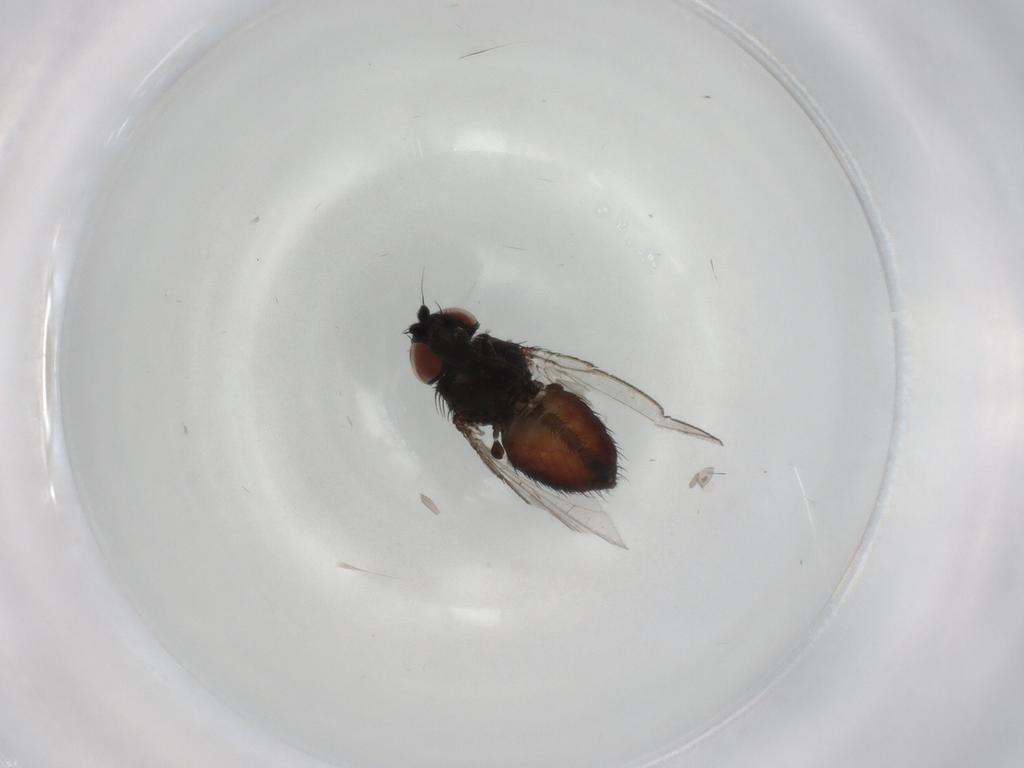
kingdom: Animalia
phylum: Arthropoda
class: Insecta
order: Diptera
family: Milichiidae
